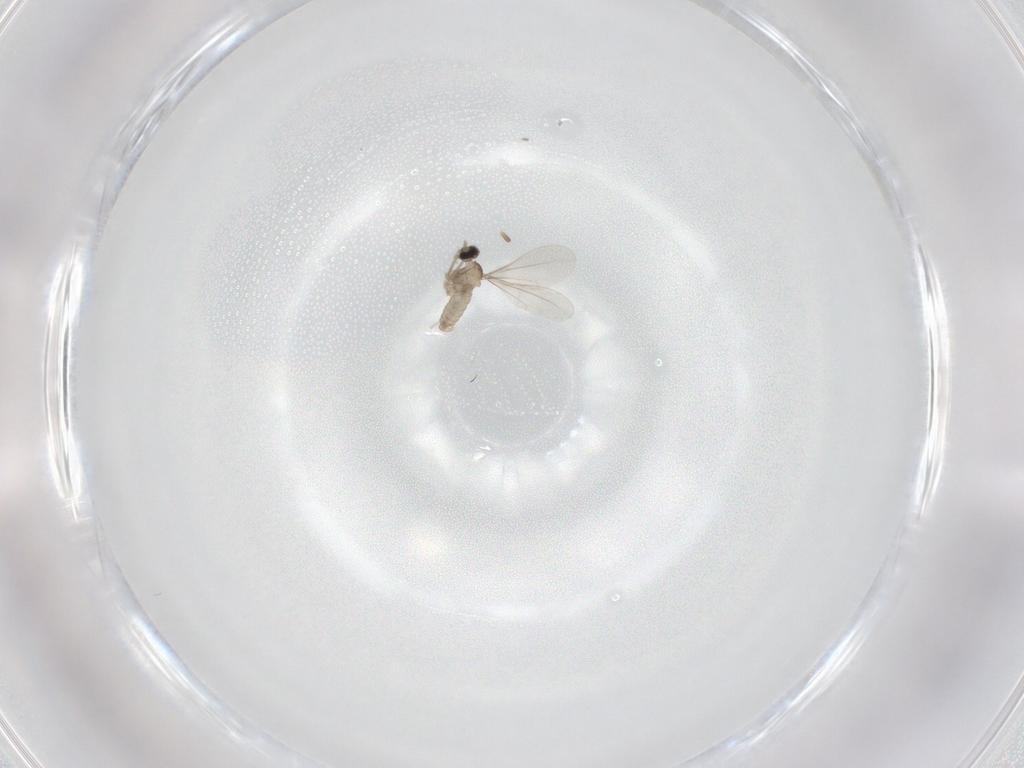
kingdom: Animalia
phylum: Arthropoda
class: Insecta
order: Diptera
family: Cecidomyiidae
